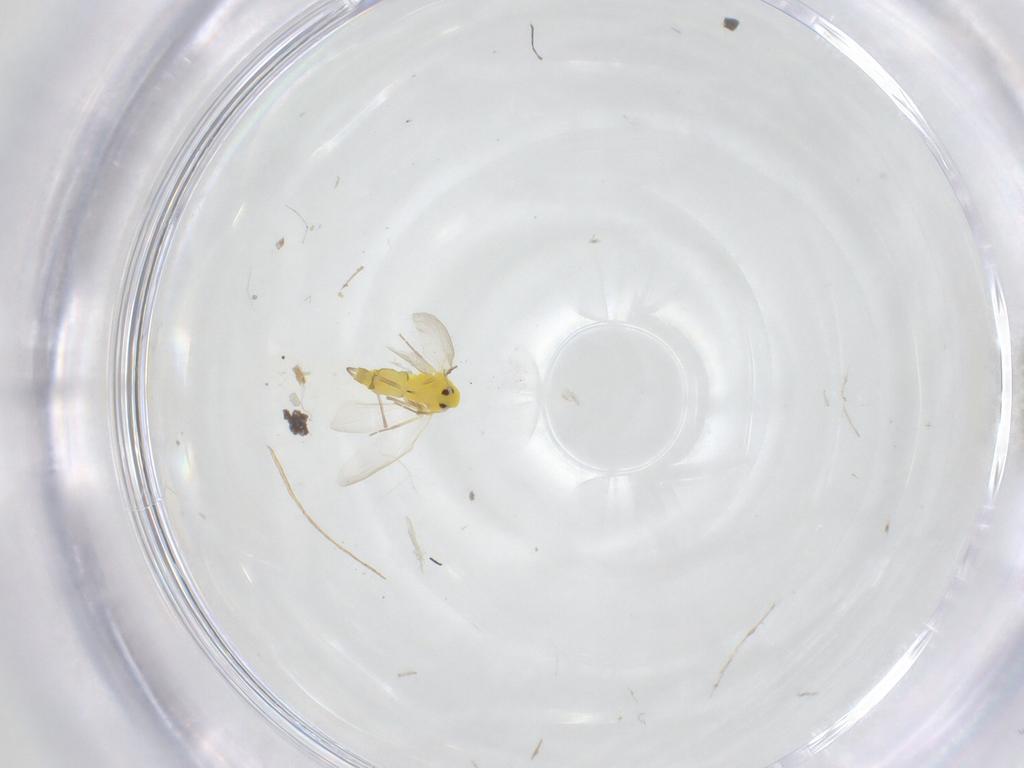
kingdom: Animalia
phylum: Arthropoda
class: Insecta
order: Hemiptera
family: Aleyrodidae
